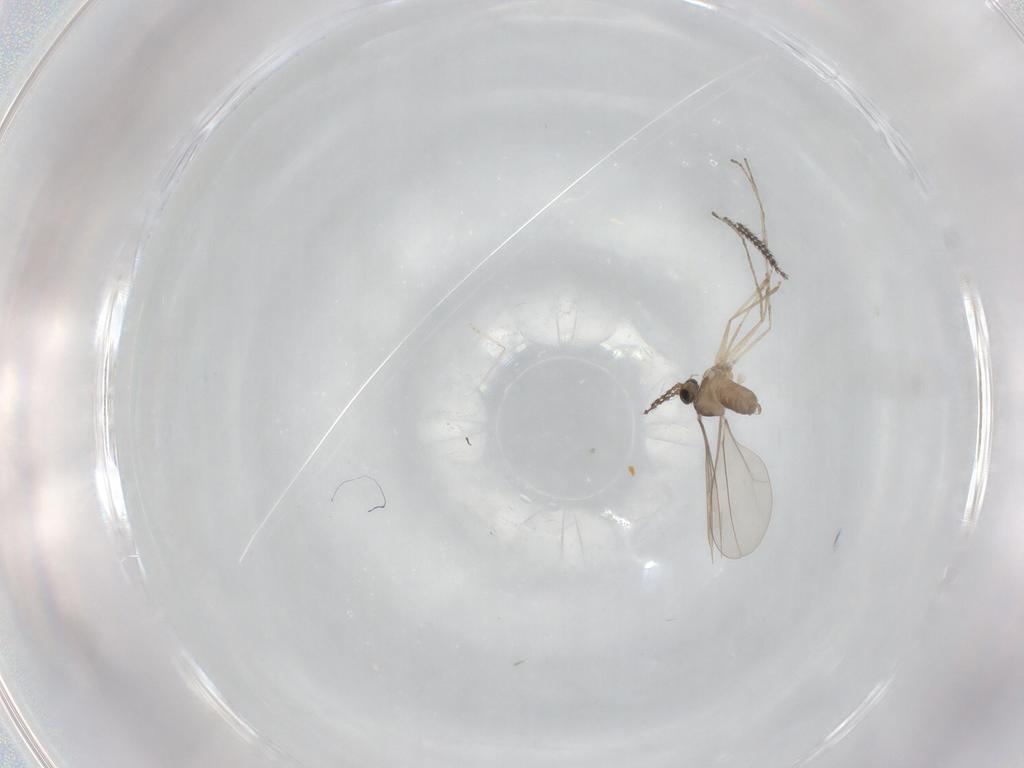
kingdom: Animalia
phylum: Arthropoda
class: Insecta
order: Diptera
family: Cecidomyiidae
